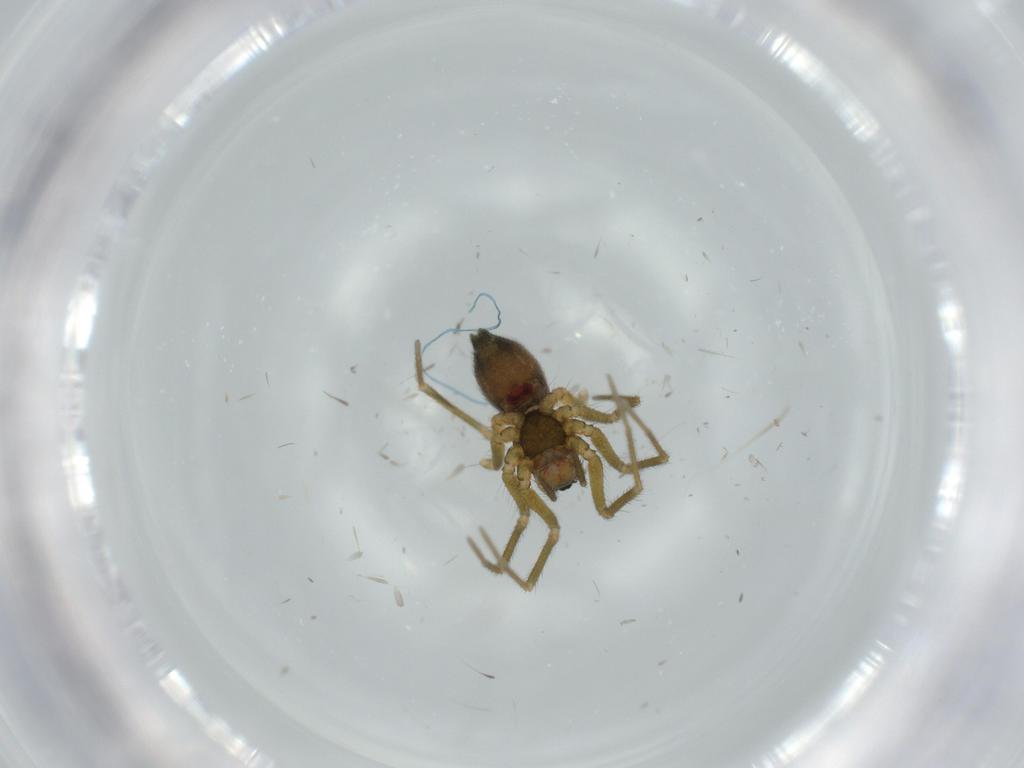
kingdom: Animalia
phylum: Arthropoda
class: Arachnida
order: Araneae
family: Linyphiidae
